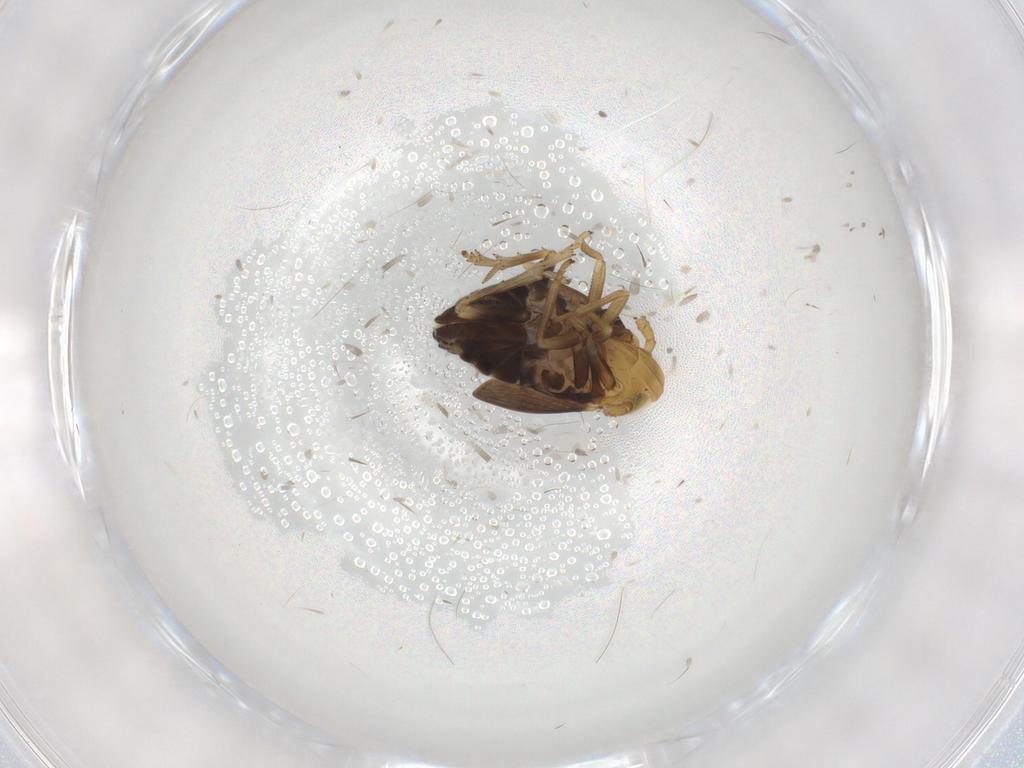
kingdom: Animalia
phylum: Arthropoda
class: Insecta
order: Hemiptera
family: Delphacidae
